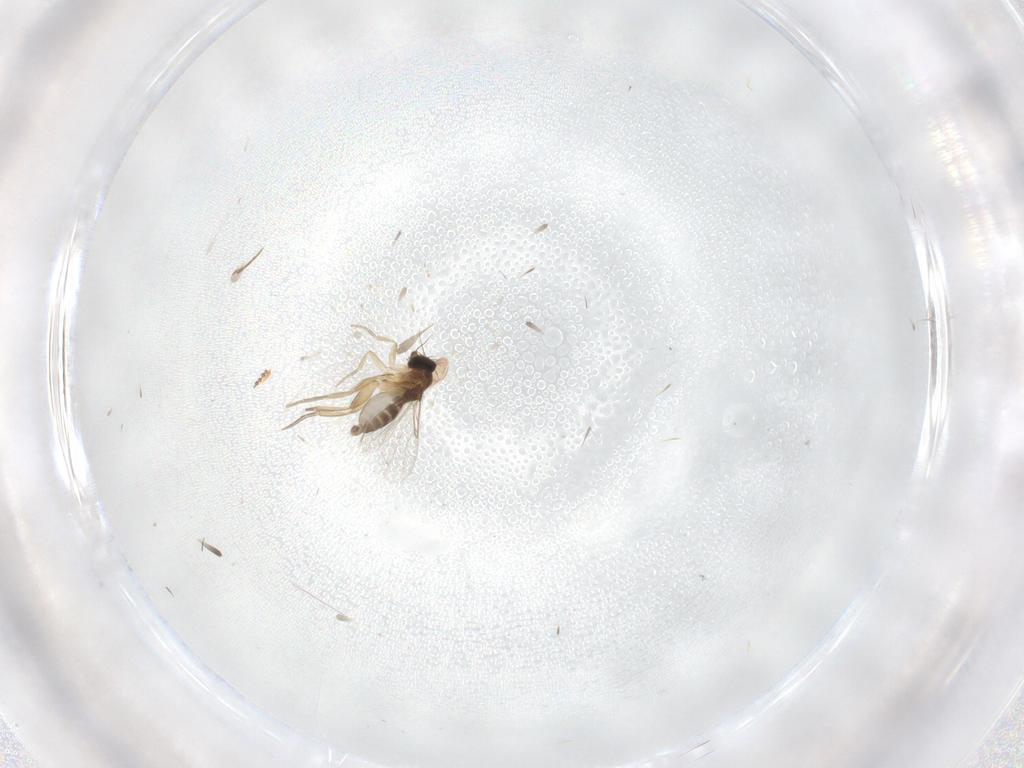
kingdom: Animalia
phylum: Arthropoda
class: Insecta
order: Diptera
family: Phoridae
